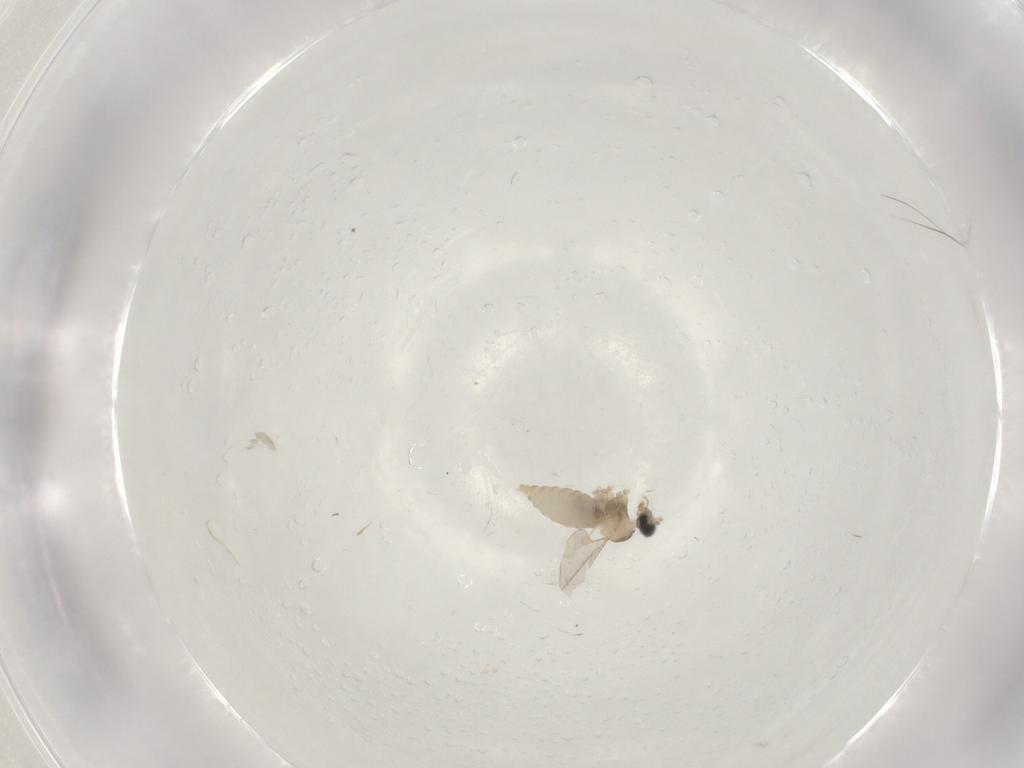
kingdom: Animalia
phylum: Arthropoda
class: Insecta
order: Diptera
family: Cecidomyiidae
